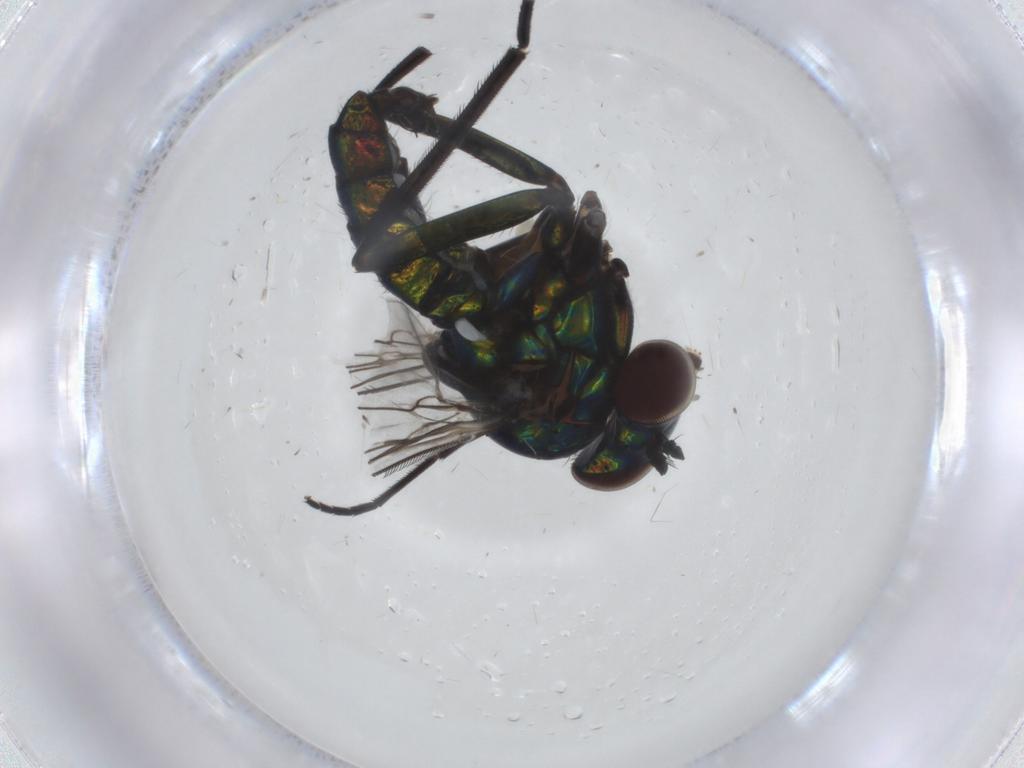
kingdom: Animalia
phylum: Arthropoda
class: Insecta
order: Diptera
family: Dolichopodidae
